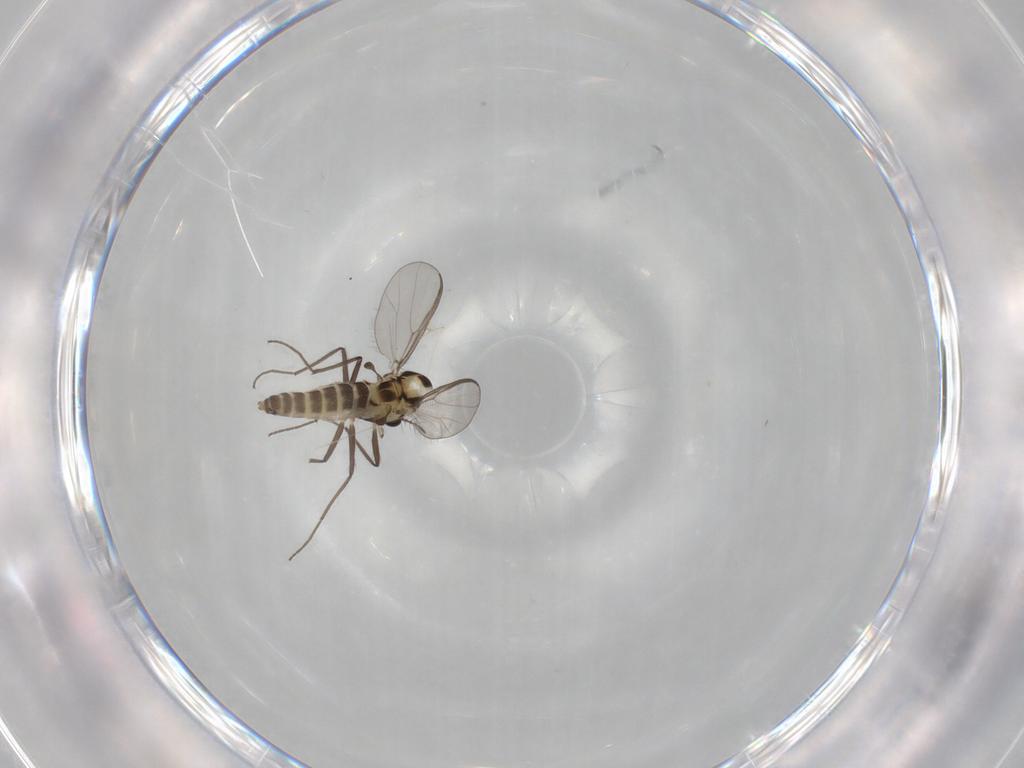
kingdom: Animalia
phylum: Arthropoda
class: Insecta
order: Diptera
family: Chironomidae
